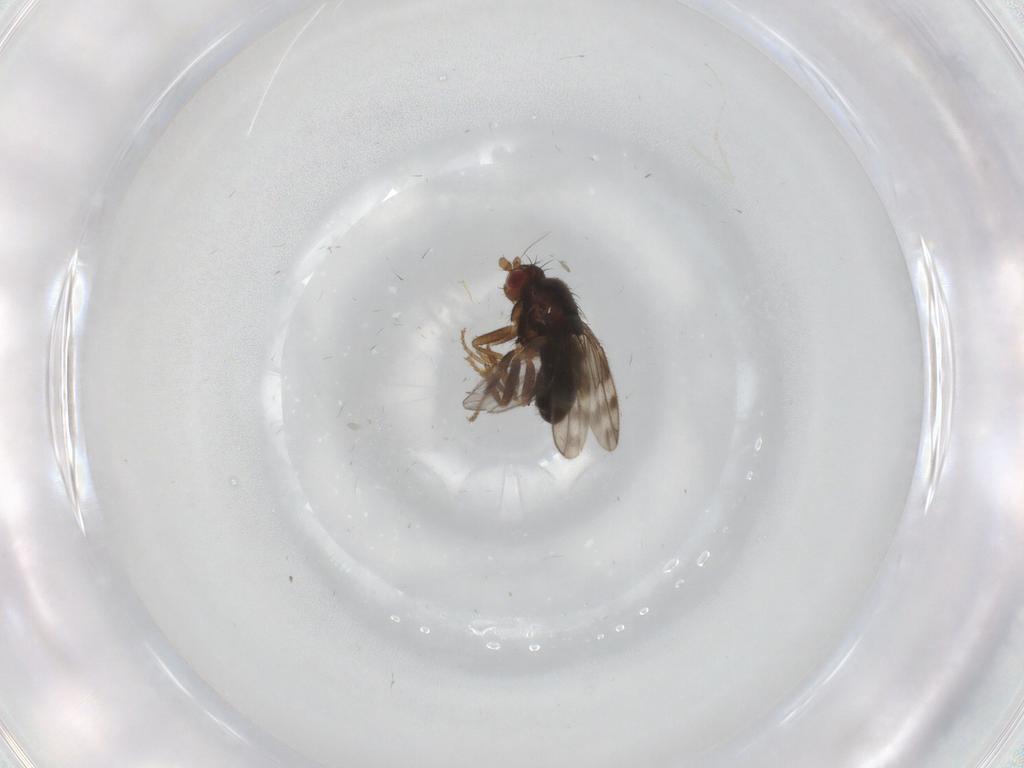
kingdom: Animalia
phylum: Arthropoda
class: Insecta
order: Diptera
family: Sphaeroceridae
